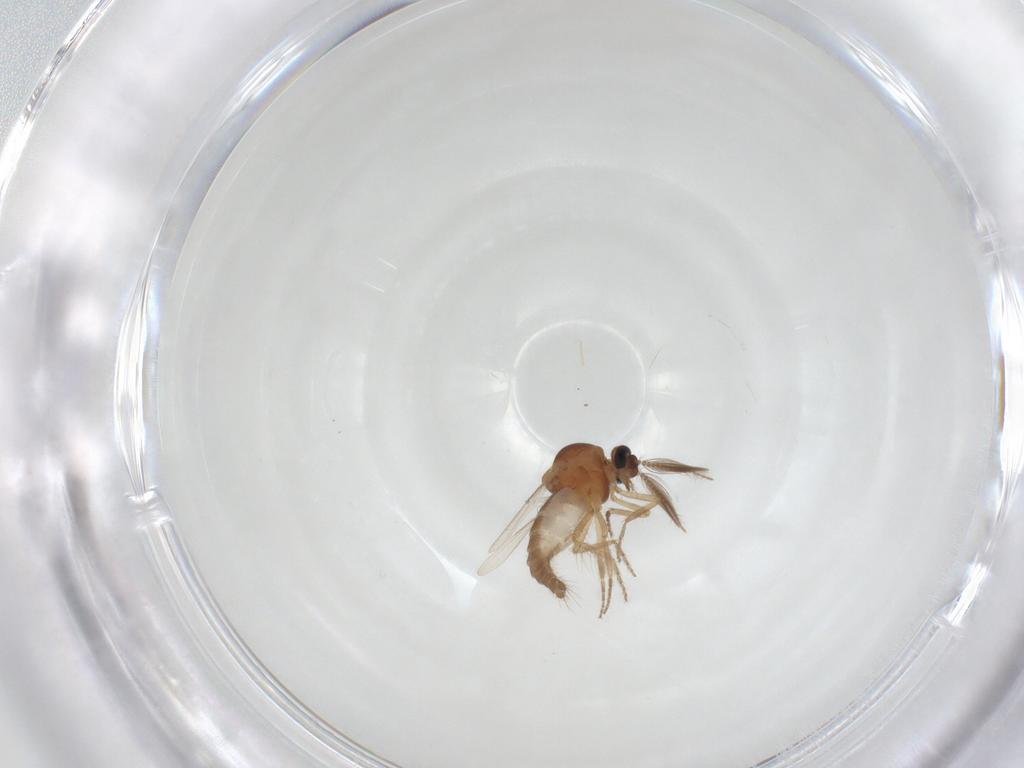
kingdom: Animalia
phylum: Arthropoda
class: Insecta
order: Diptera
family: Ceratopogonidae
